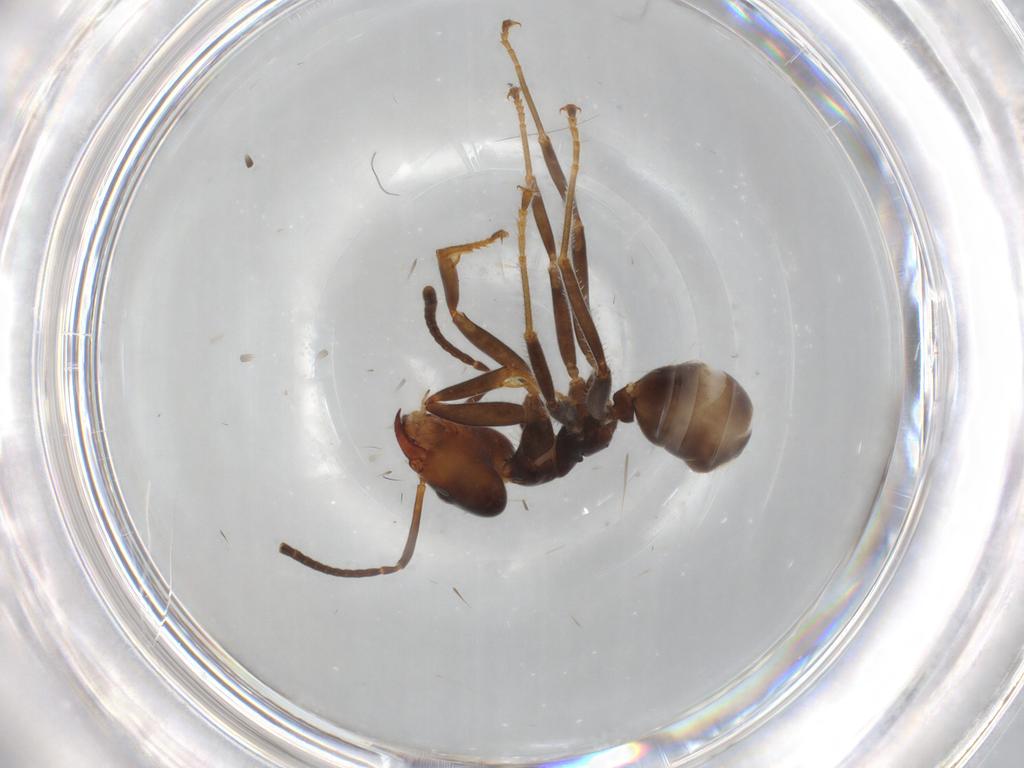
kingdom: Animalia
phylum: Arthropoda
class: Insecta
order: Hymenoptera
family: Formicidae
